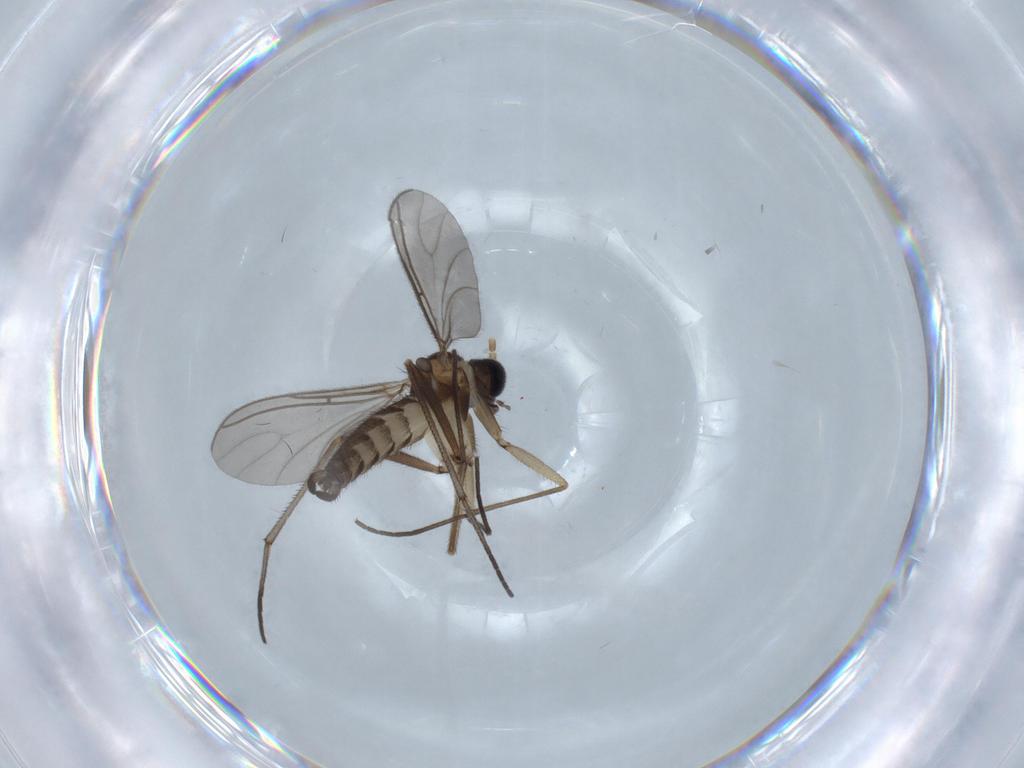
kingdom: Animalia
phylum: Arthropoda
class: Insecta
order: Diptera
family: Sciaridae
